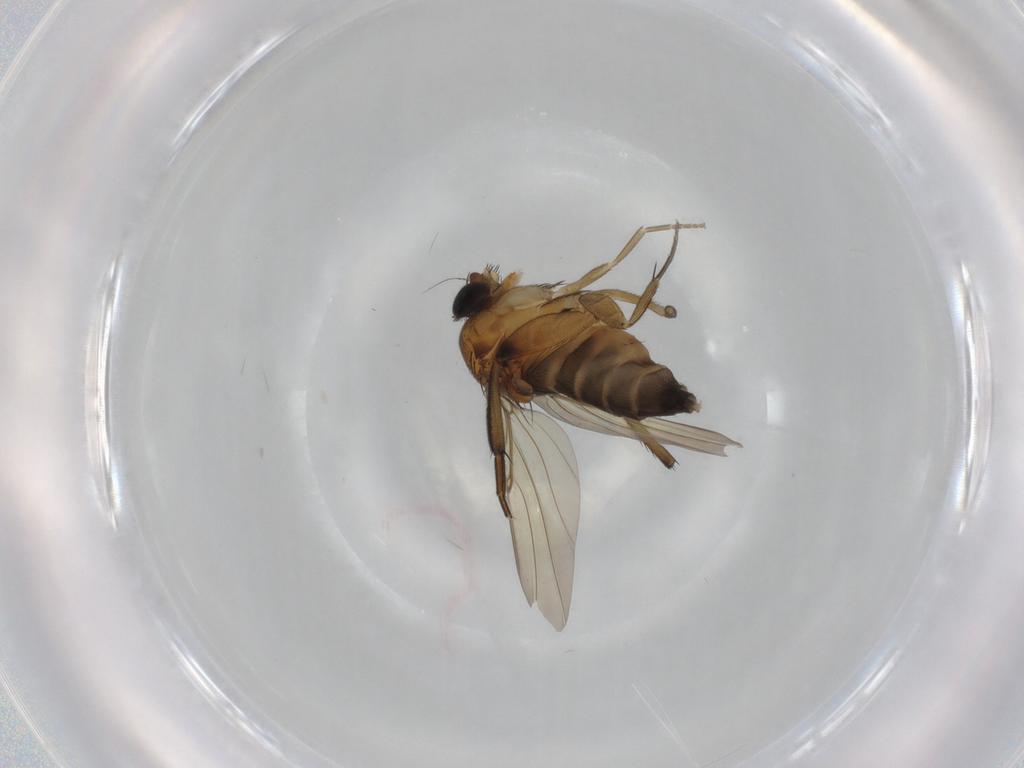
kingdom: Animalia
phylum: Arthropoda
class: Insecta
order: Diptera
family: Phoridae
